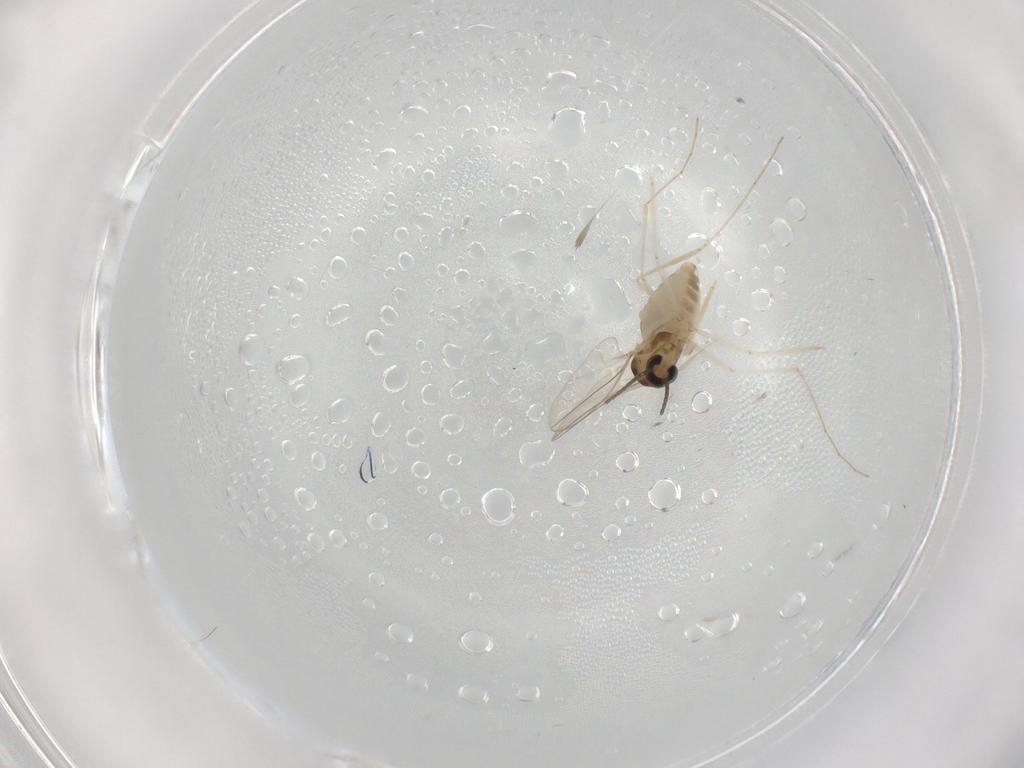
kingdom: Animalia
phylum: Arthropoda
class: Insecta
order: Diptera
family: Cecidomyiidae
